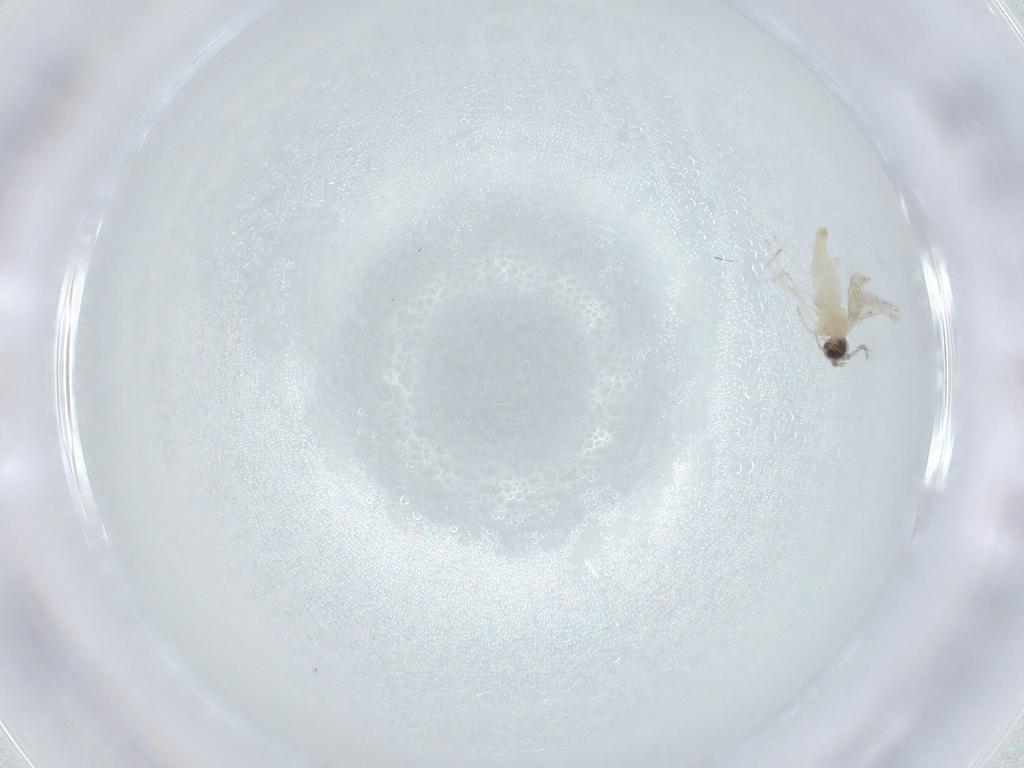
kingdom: Animalia
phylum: Arthropoda
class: Insecta
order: Diptera
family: Cecidomyiidae
